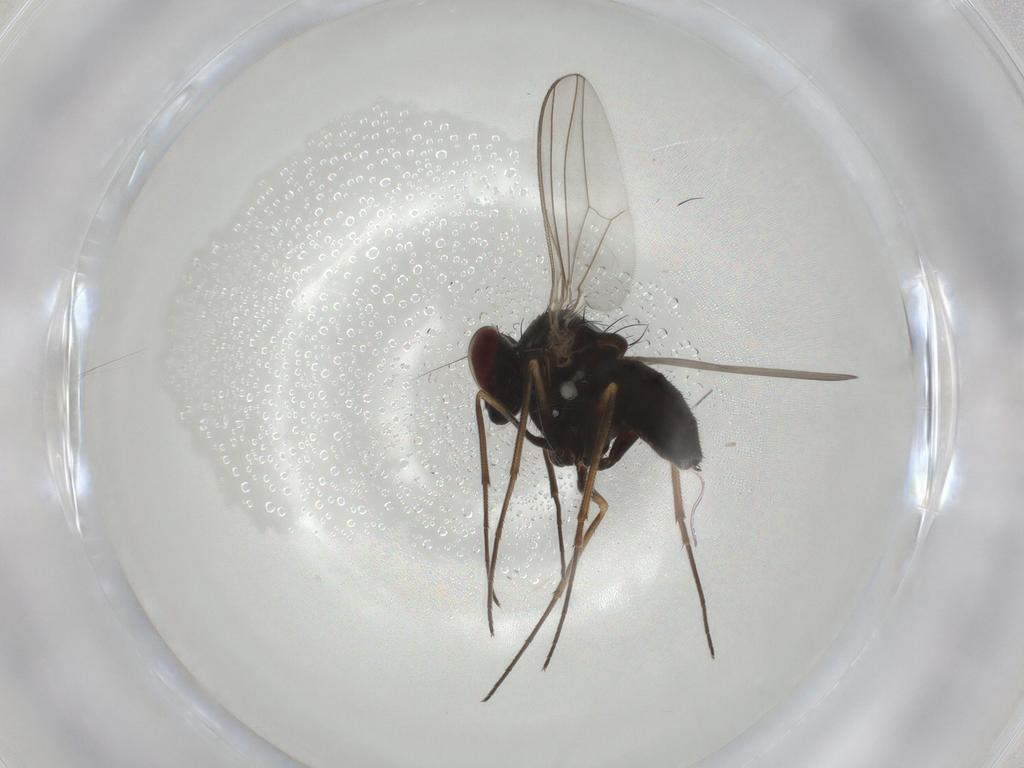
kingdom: Animalia
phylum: Arthropoda
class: Insecta
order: Diptera
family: Dolichopodidae
